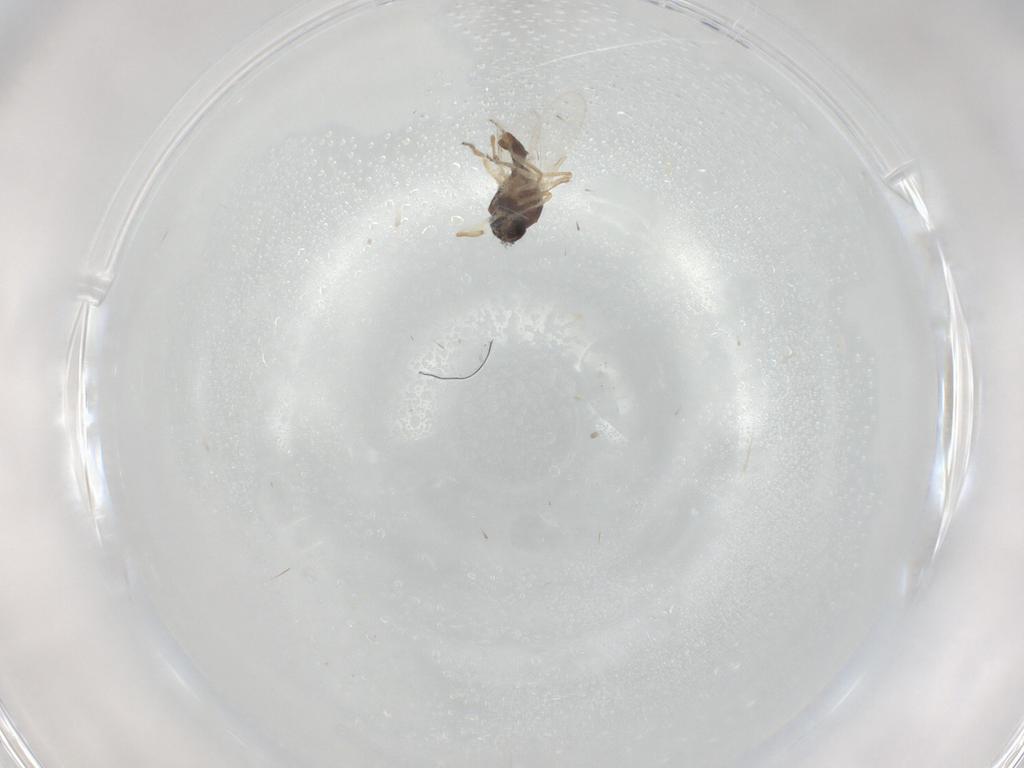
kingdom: Animalia
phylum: Arthropoda
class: Insecta
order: Diptera
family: Ceratopogonidae
